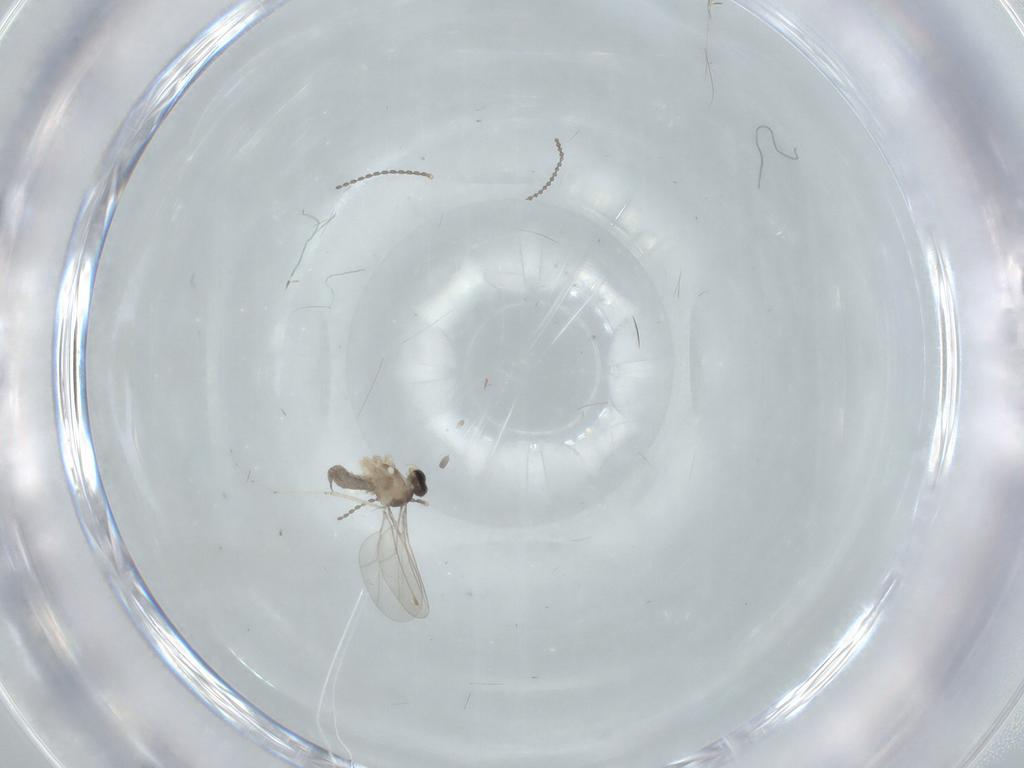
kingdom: Animalia
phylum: Arthropoda
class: Insecta
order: Diptera
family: Cecidomyiidae
